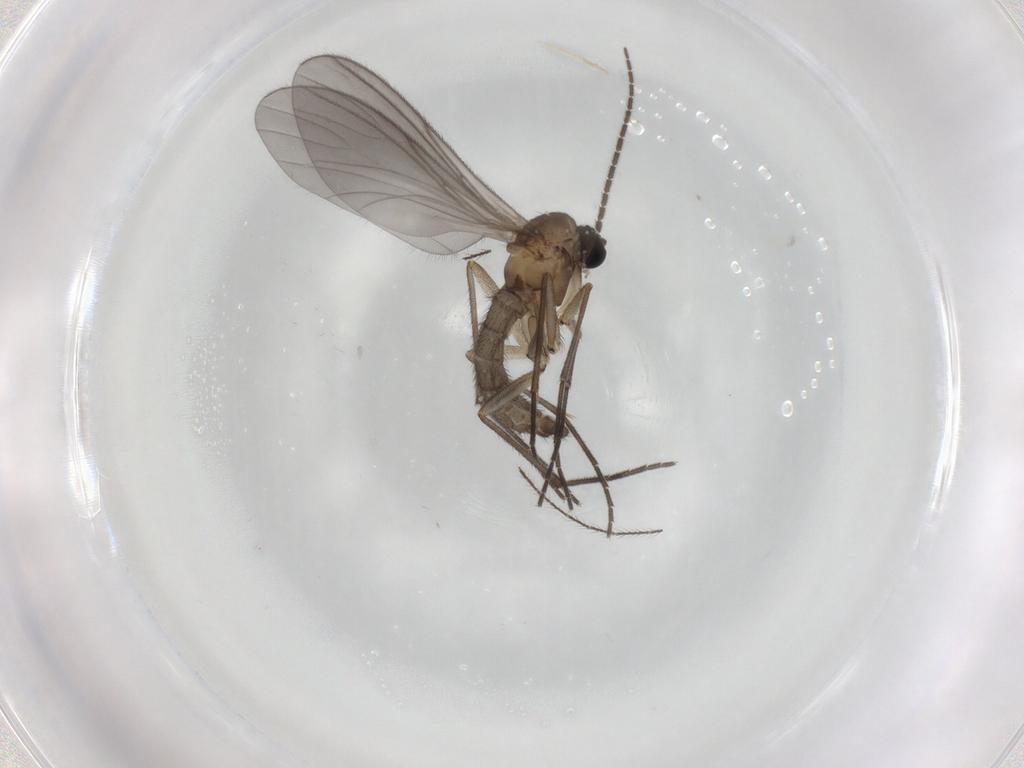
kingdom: Animalia
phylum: Arthropoda
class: Insecta
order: Diptera
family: Sciaridae
